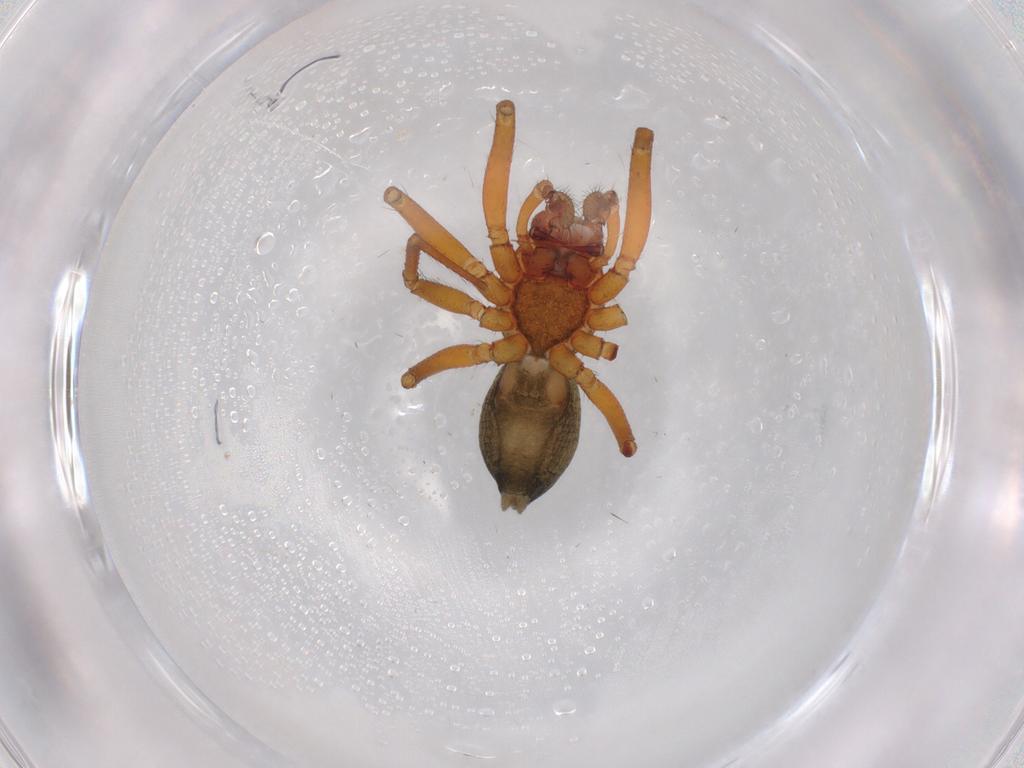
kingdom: Animalia
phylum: Arthropoda
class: Arachnida
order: Araneae
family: Linyphiidae
